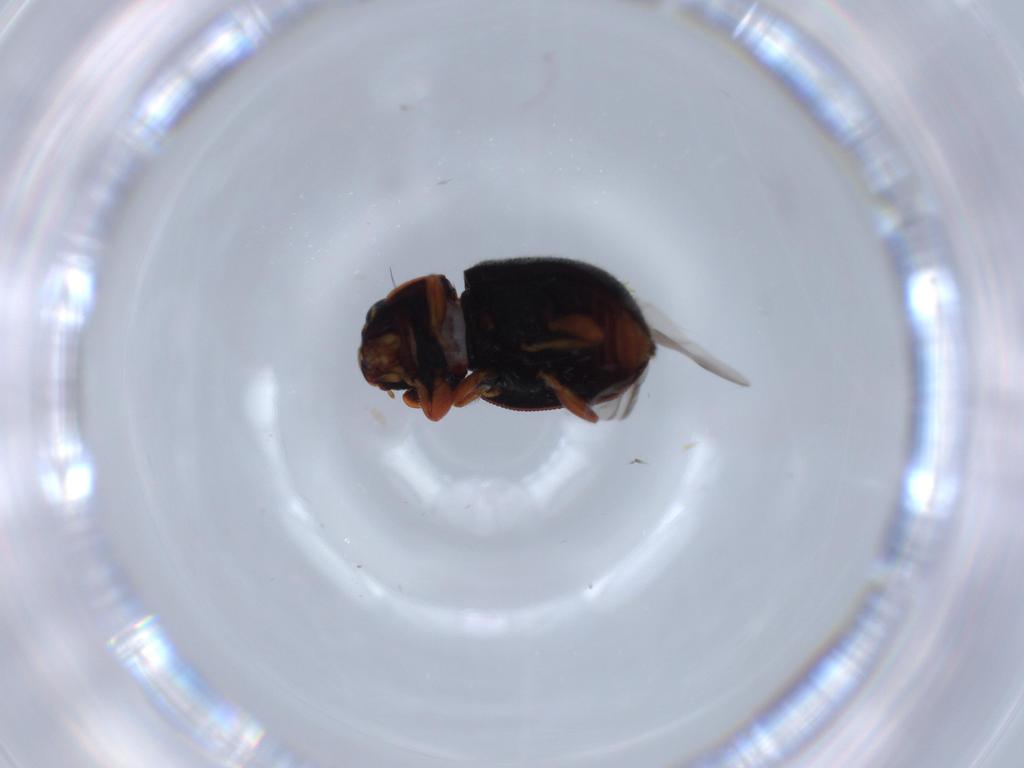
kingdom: Animalia
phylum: Arthropoda
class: Insecta
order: Coleoptera
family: Coccinellidae
